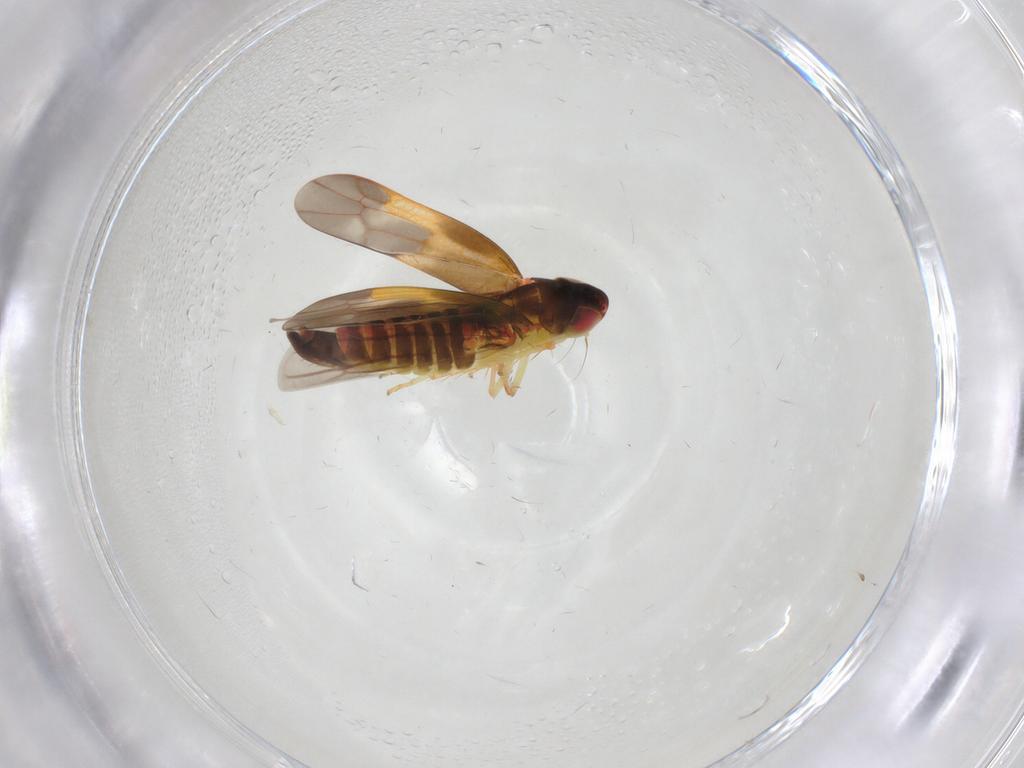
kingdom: Animalia
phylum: Arthropoda
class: Insecta
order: Hemiptera
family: Cicadellidae
